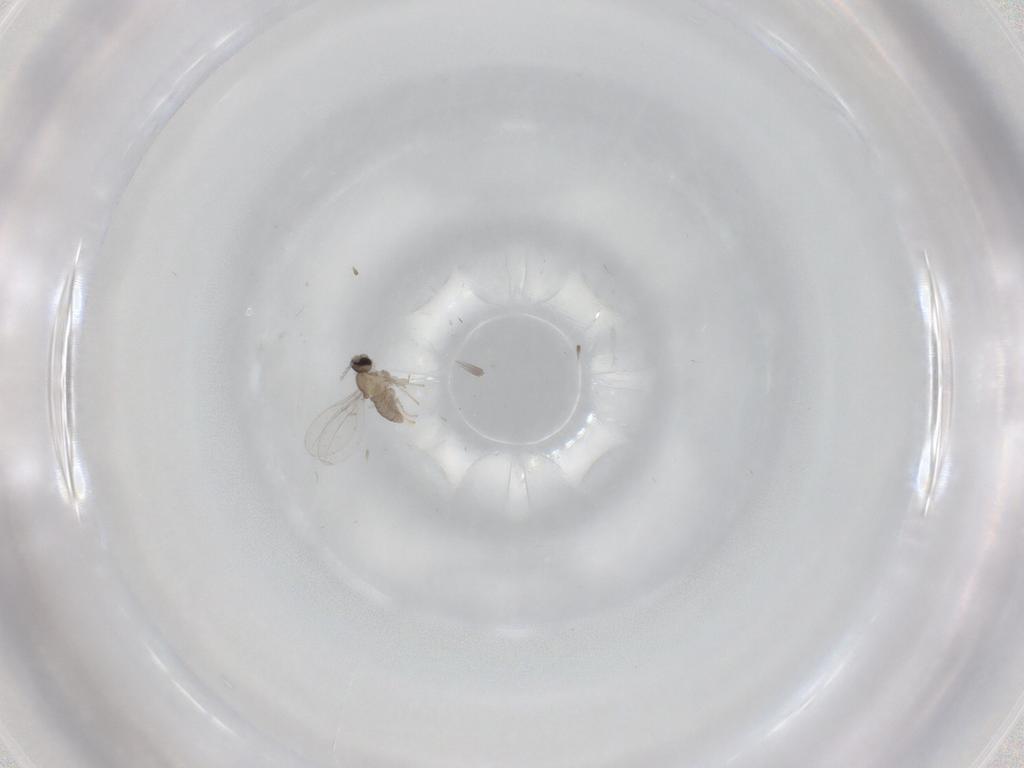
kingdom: Animalia
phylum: Arthropoda
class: Insecta
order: Diptera
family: Cecidomyiidae
